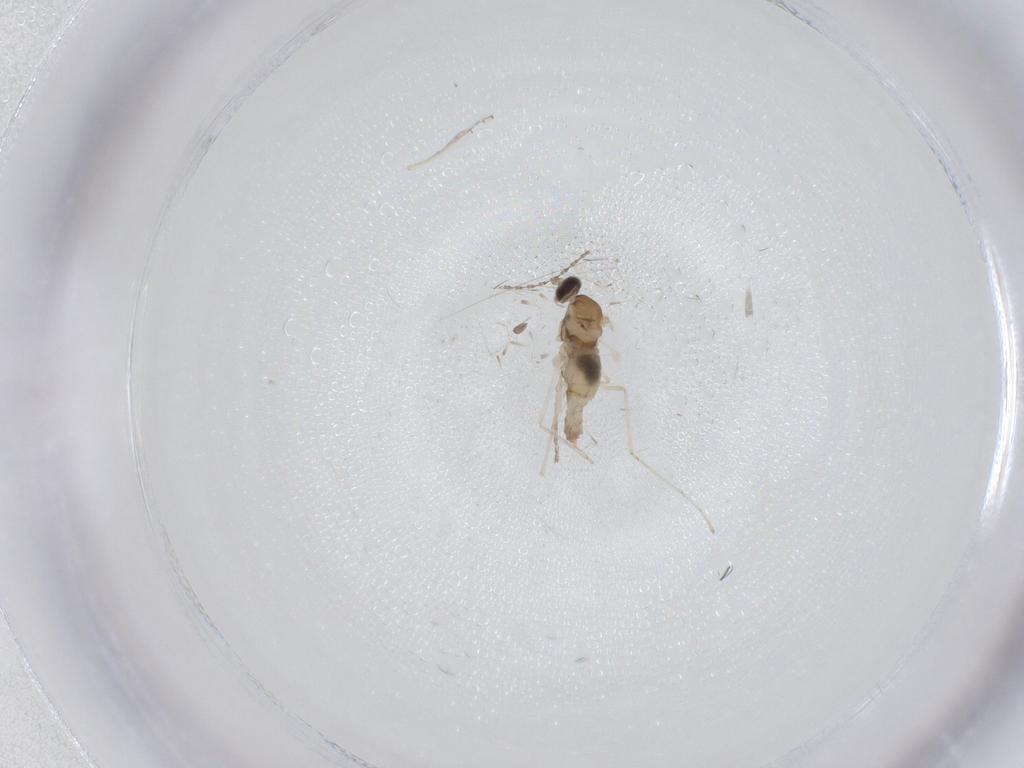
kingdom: Animalia
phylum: Arthropoda
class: Insecta
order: Diptera
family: Cecidomyiidae
